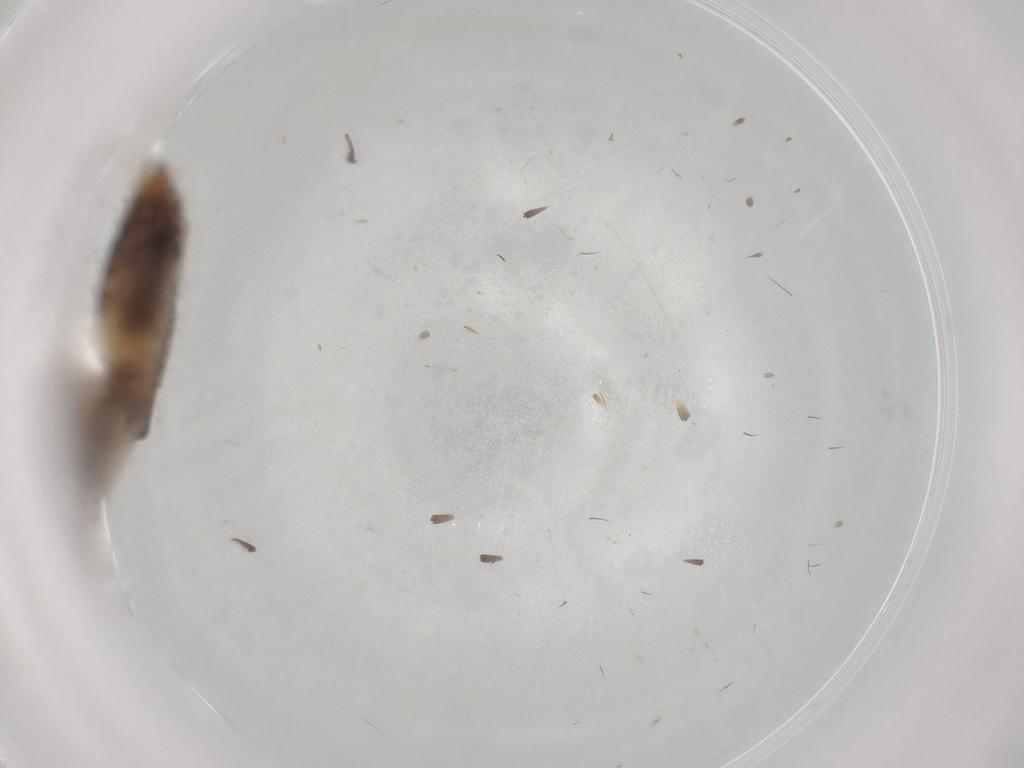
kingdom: Animalia
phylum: Arthropoda
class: Insecta
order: Lepidoptera
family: Cosmopterigidae
